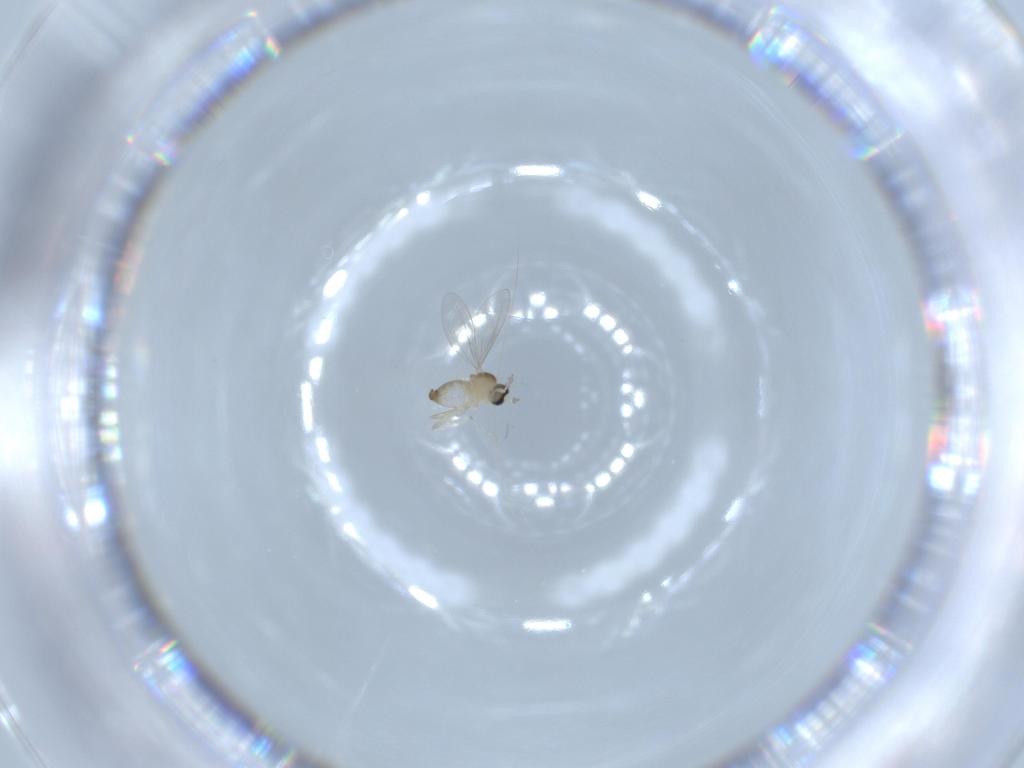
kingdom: Animalia
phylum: Arthropoda
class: Insecta
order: Diptera
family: Cecidomyiidae
